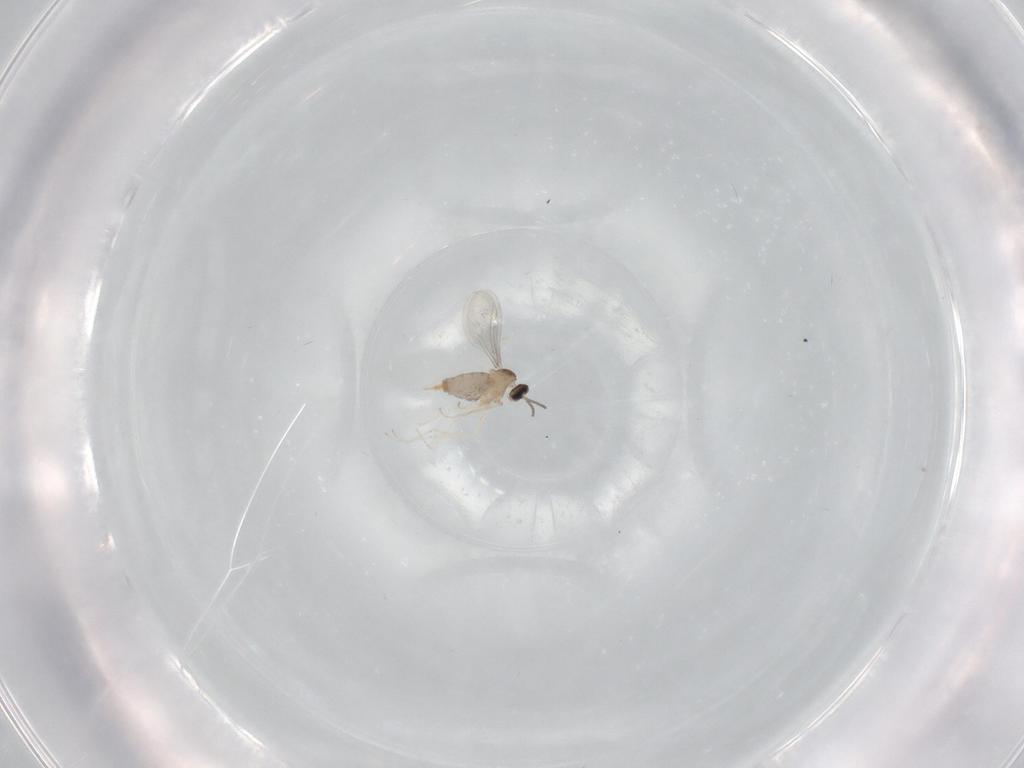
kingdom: Animalia
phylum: Arthropoda
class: Insecta
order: Diptera
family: Cecidomyiidae
